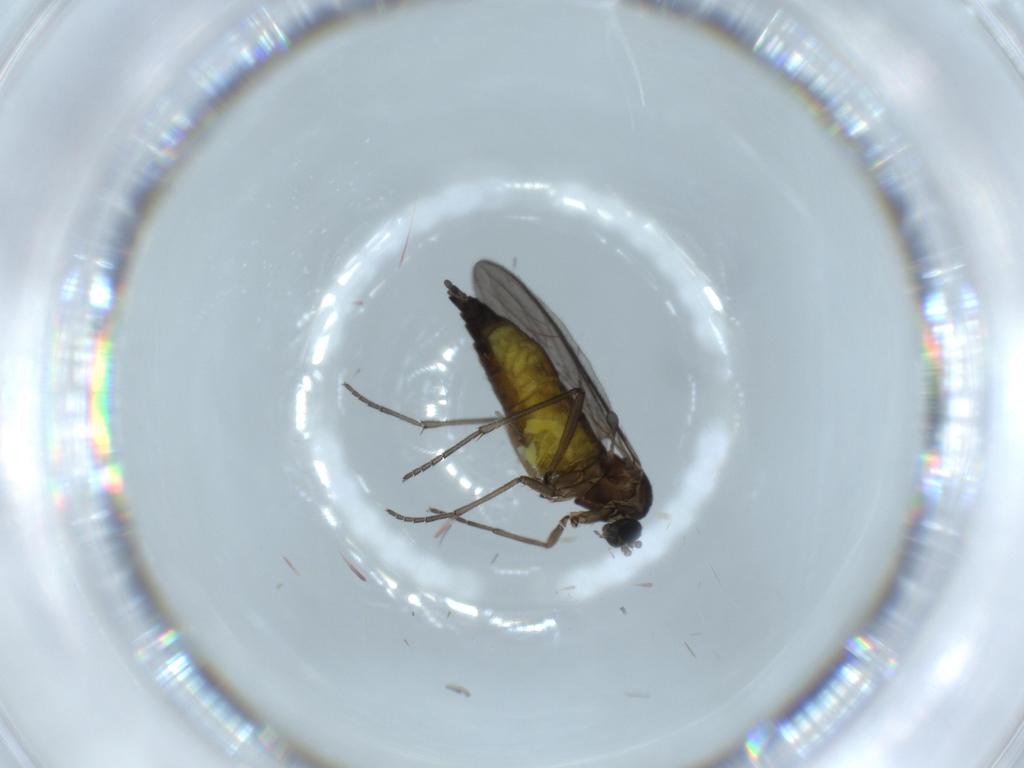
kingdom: Animalia
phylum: Arthropoda
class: Insecta
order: Diptera
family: Sciaridae
